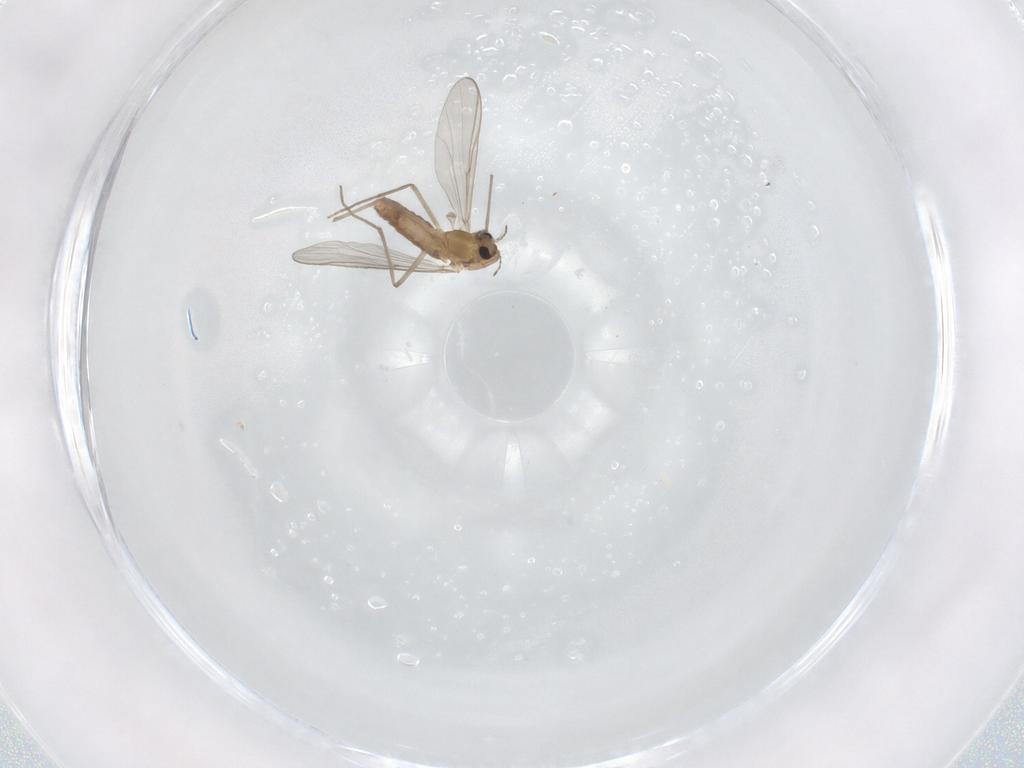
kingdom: Animalia
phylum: Arthropoda
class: Insecta
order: Diptera
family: Chironomidae
